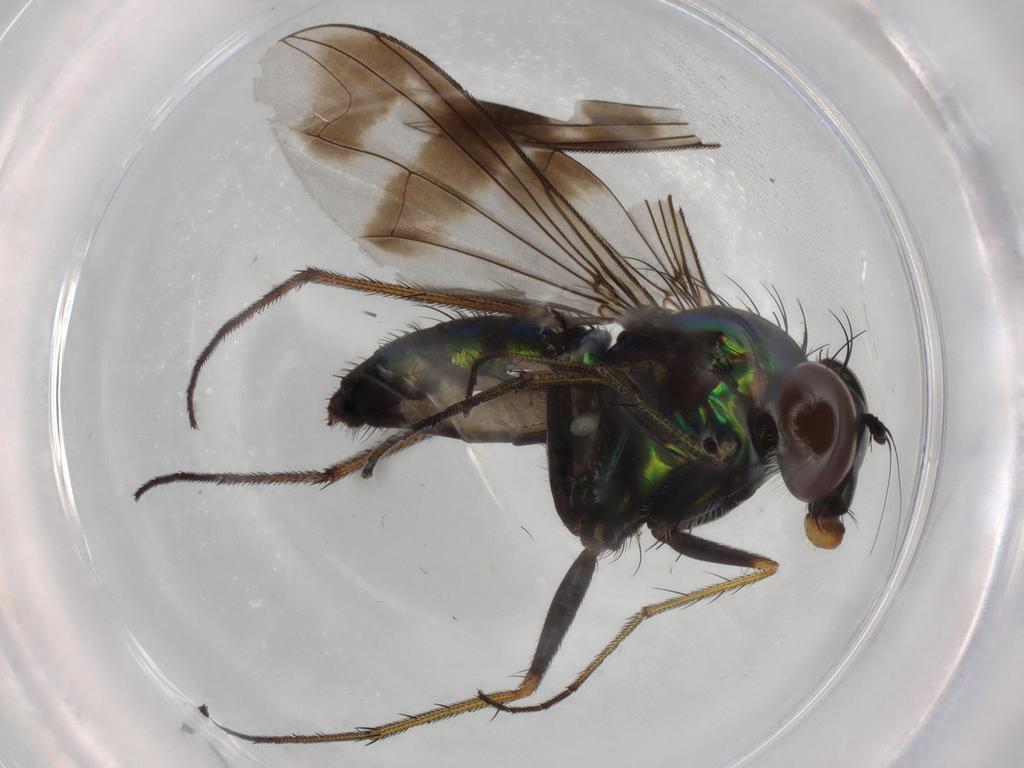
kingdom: Animalia
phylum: Arthropoda
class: Insecta
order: Diptera
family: Dolichopodidae
